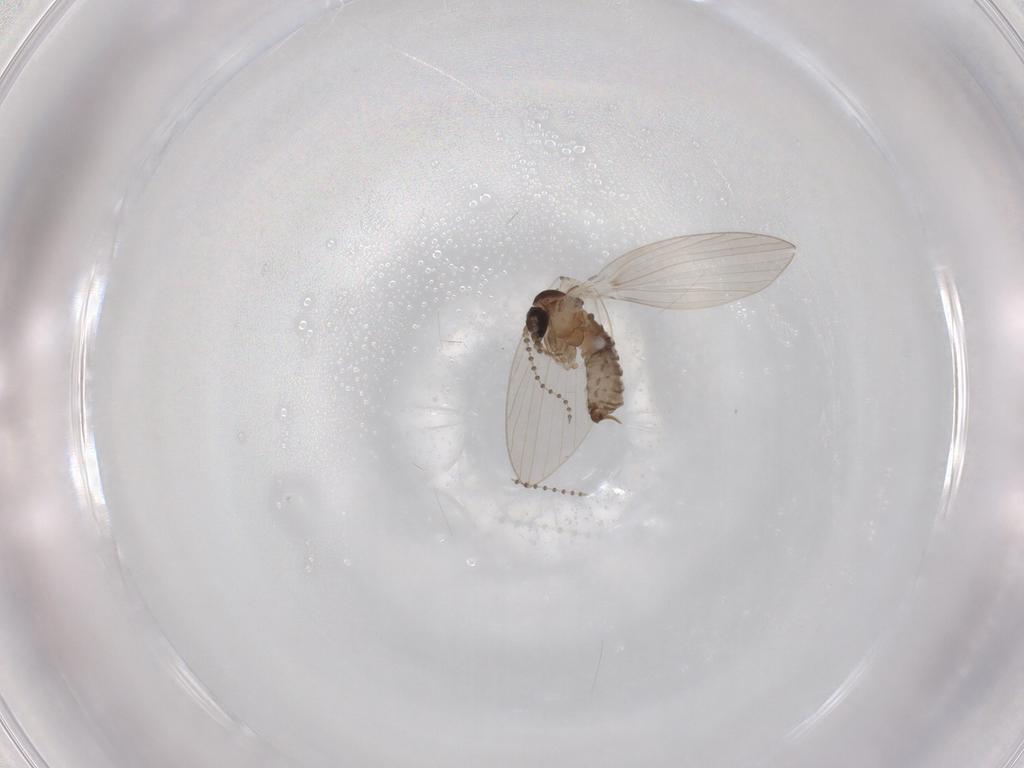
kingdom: Animalia
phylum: Arthropoda
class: Insecta
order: Diptera
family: Psychodidae
